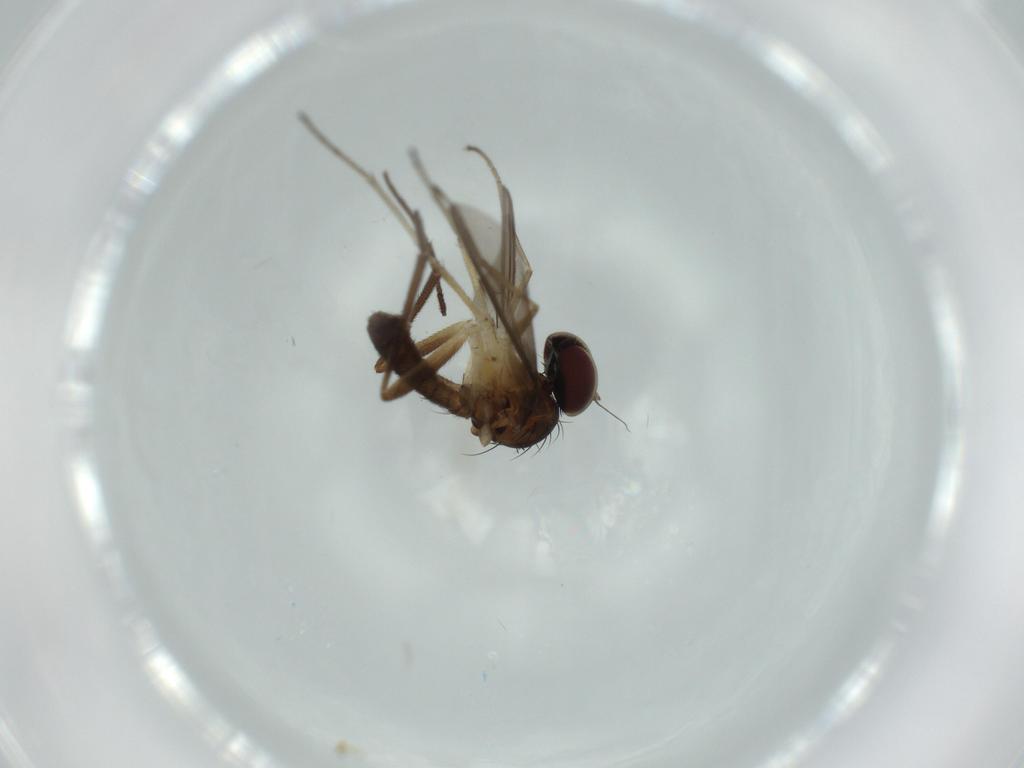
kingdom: Animalia
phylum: Arthropoda
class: Insecta
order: Diptera
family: Dolichopodidae
